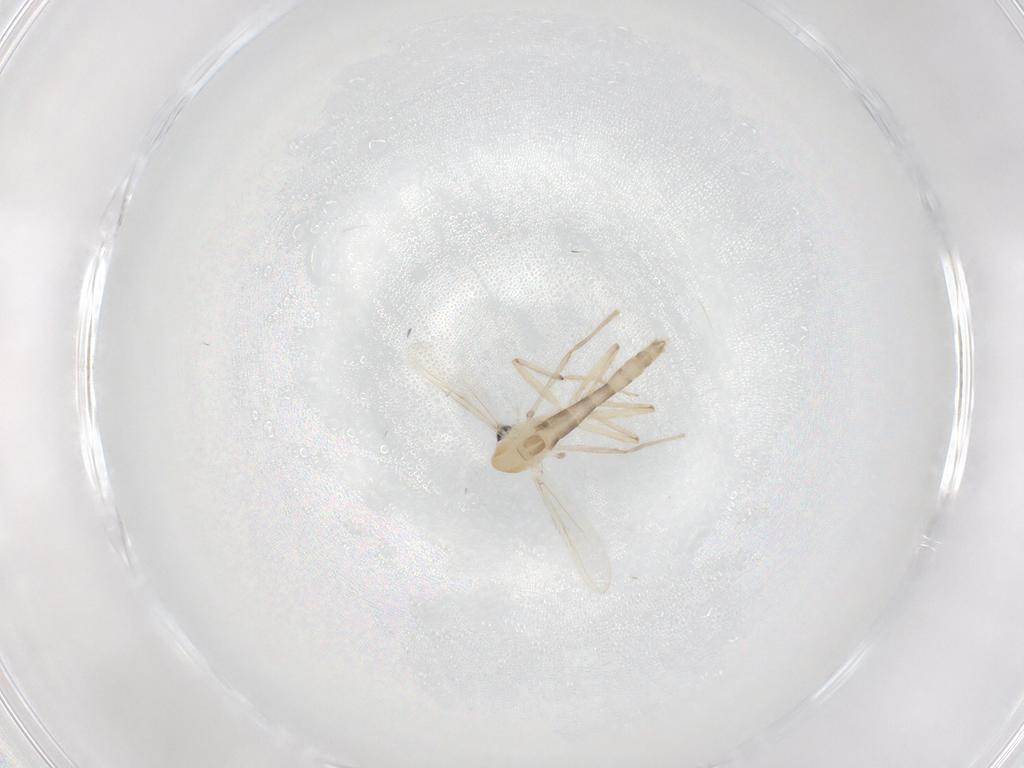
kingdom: Animalia
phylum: Arthropoda
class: Insecta
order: Diptera
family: Chironomidae
